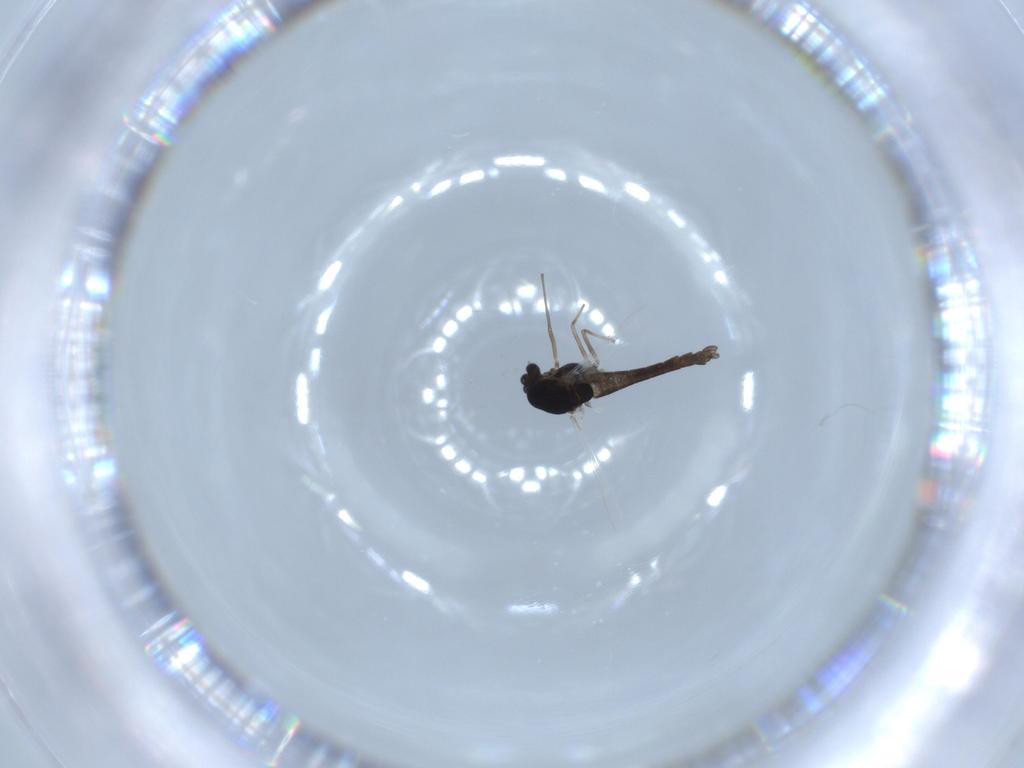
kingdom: Animalia
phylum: Arthropoda
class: Insecta
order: Diptera
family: Chironomidae
